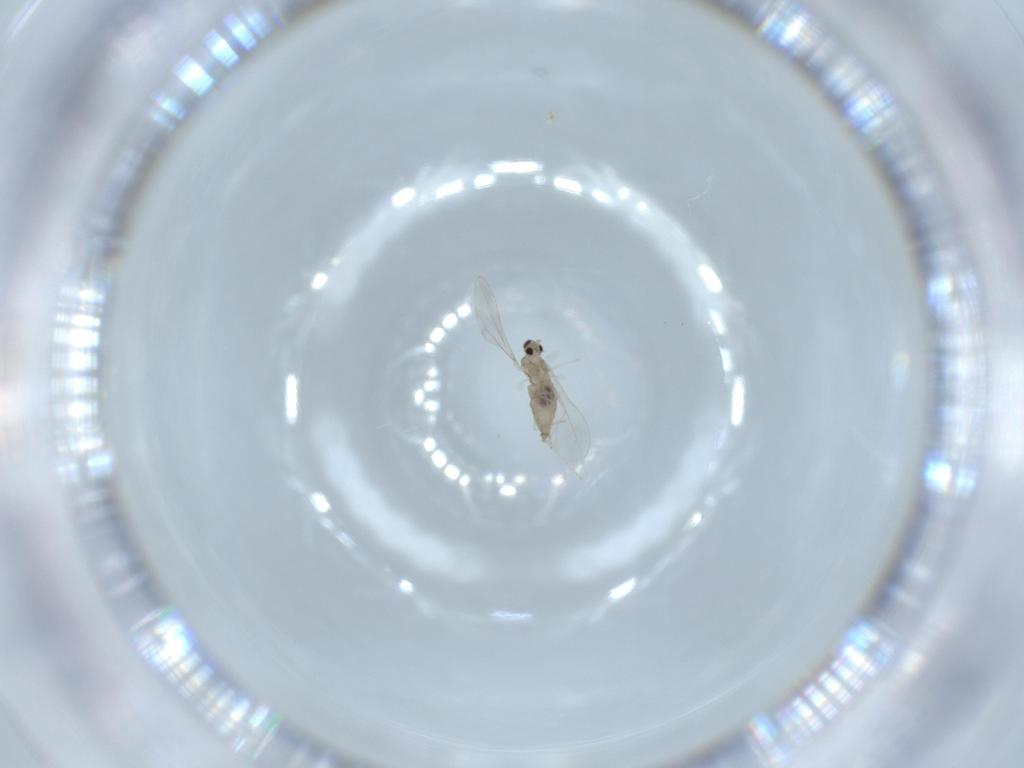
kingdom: Animalia
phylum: Arthropoda
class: Insecta
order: Diptera
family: Cecidomyiidae
